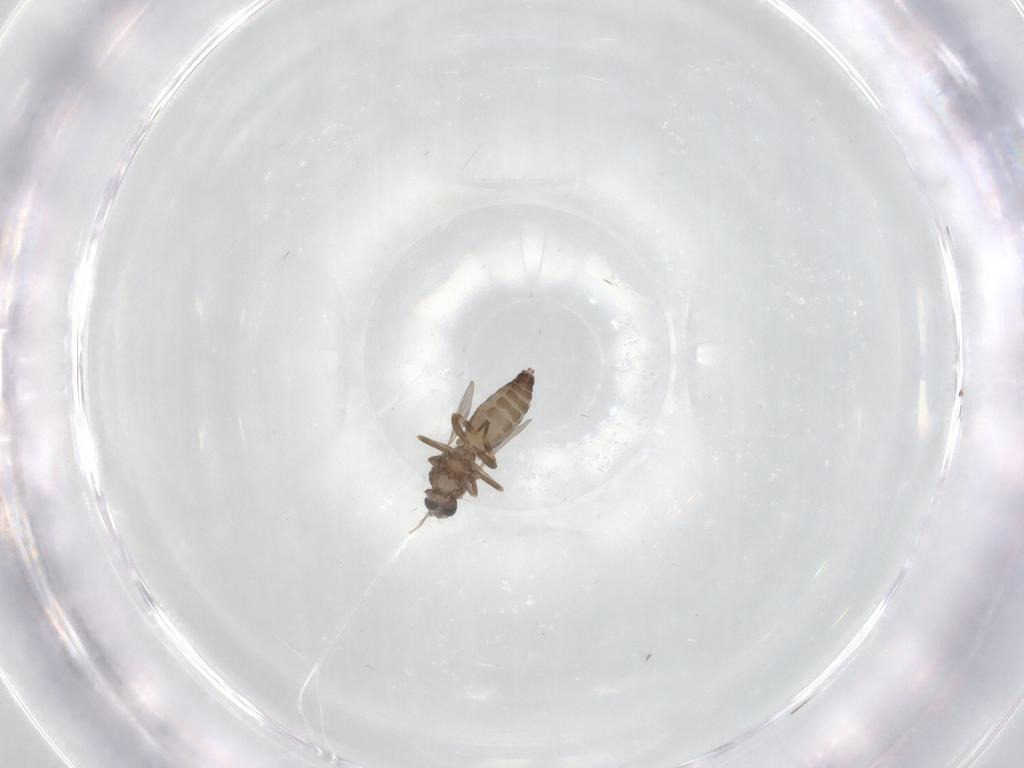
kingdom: Animalia
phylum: Arthropoda
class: Insecta
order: Diptera
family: Ceratopogonidae
